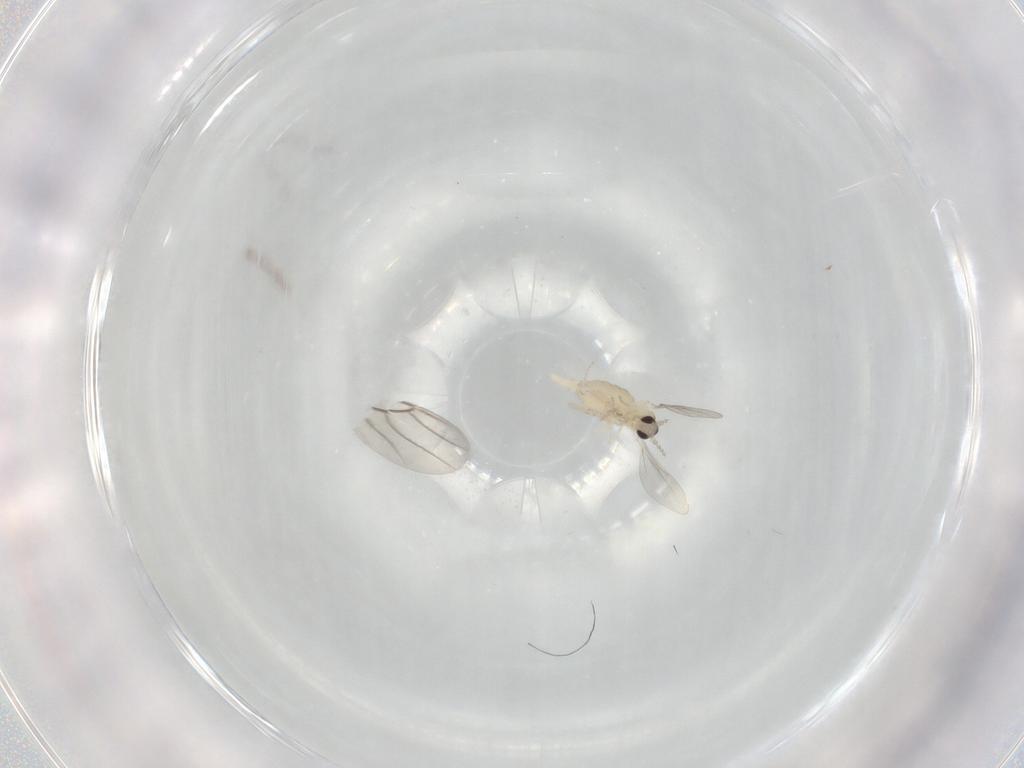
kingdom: Animalia
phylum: Arthropoda
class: Insecta
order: Diptera
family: Cecidomyiidae
